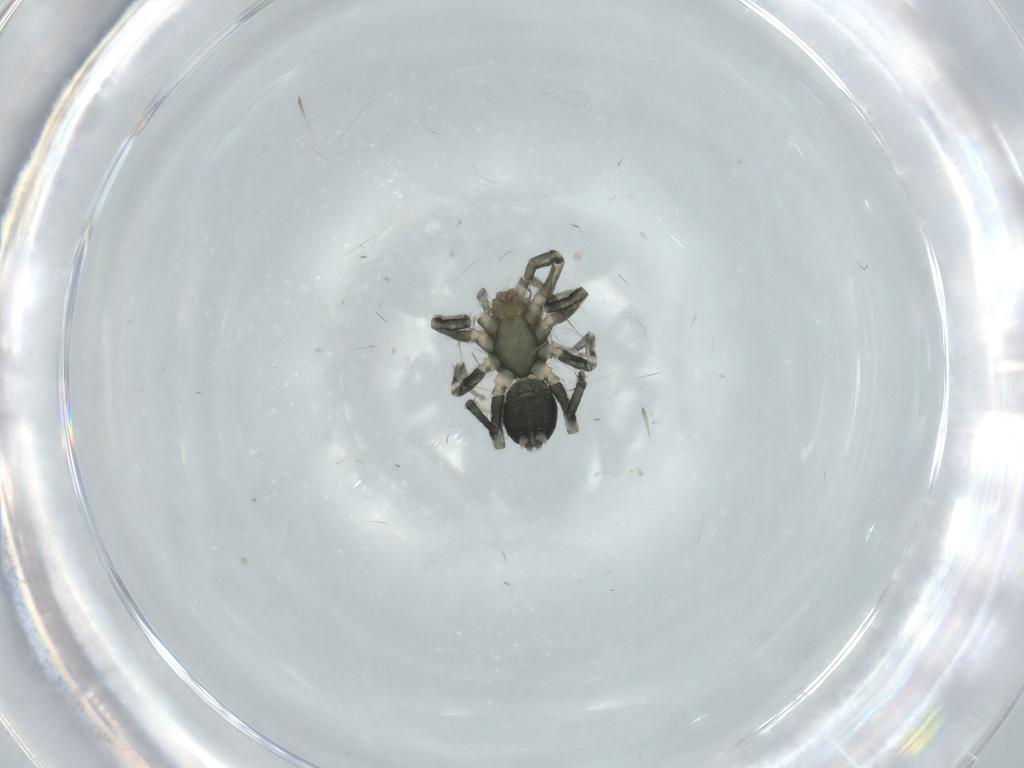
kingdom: Animalia
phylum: Arthropoda
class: Arachnida
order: Araneae
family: Gnaphosidae
